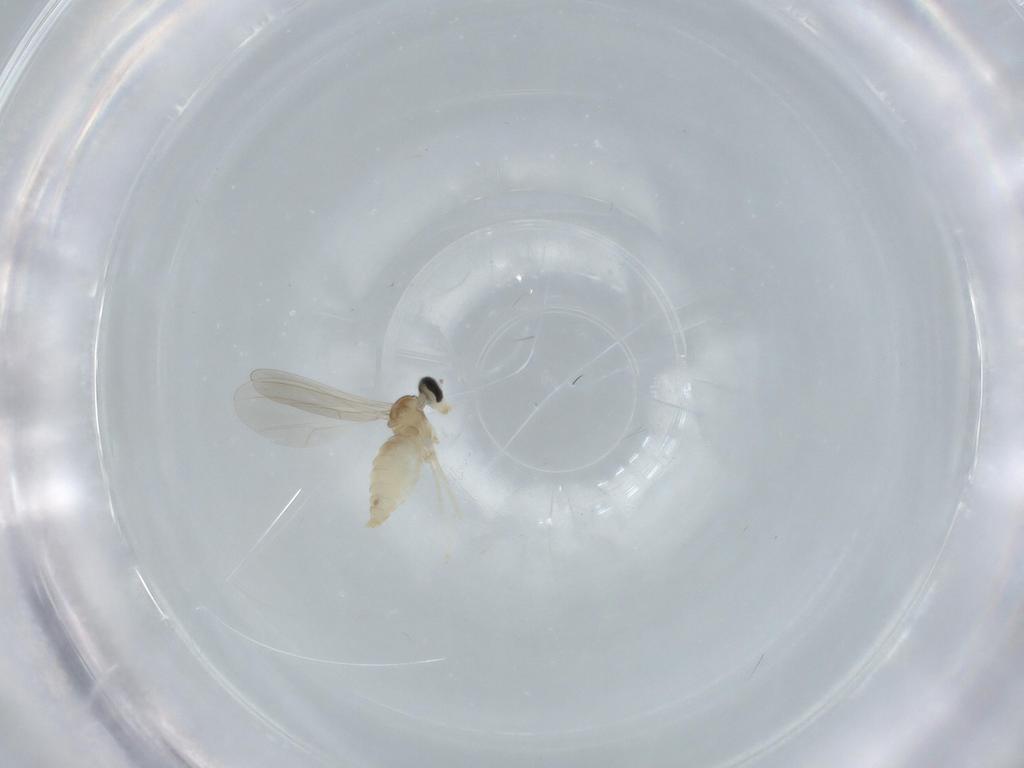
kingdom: Animalia
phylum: Arthropoda
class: Insecta
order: Diptera
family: Cecidomyiidae
